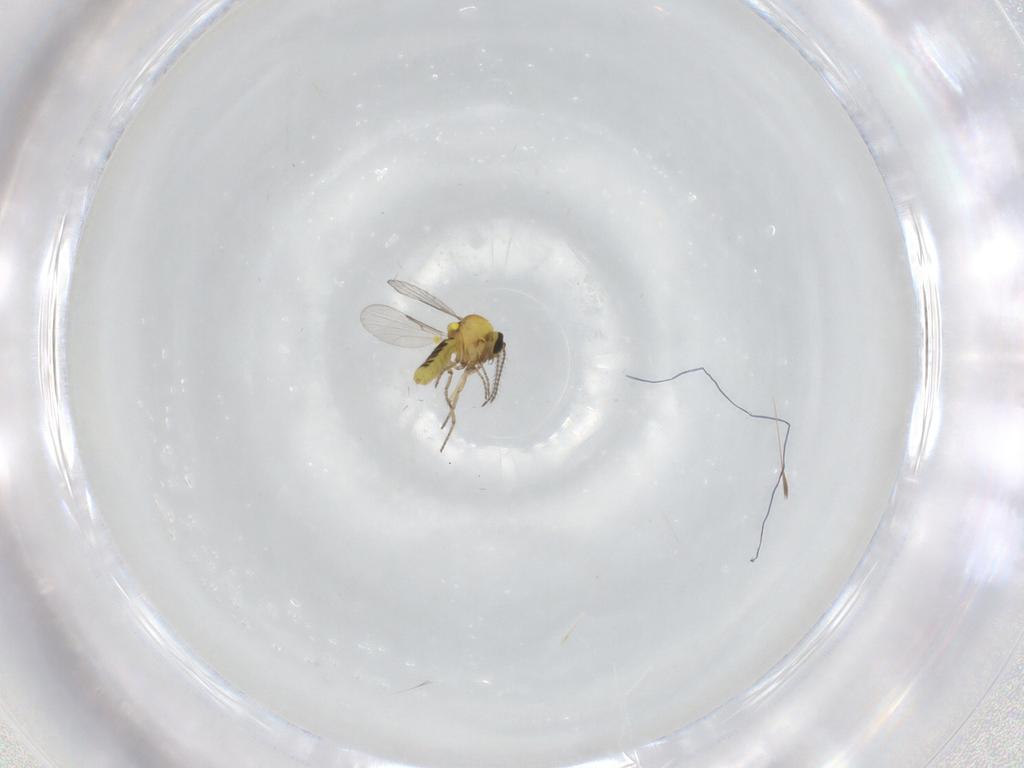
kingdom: Animalia
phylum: Arthropoda
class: Insecta
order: Diptera
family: Ceratopogonidae
